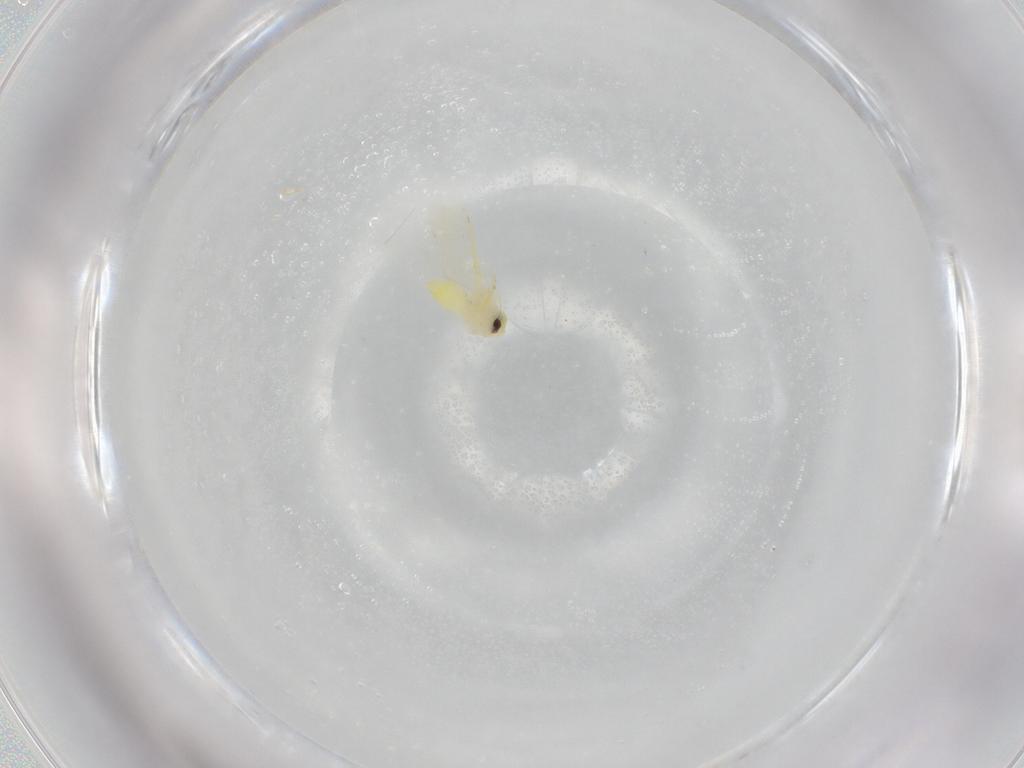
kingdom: Animalia
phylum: Arthropoda
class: Insecta
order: Hemiptera
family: Aleyrodidae
